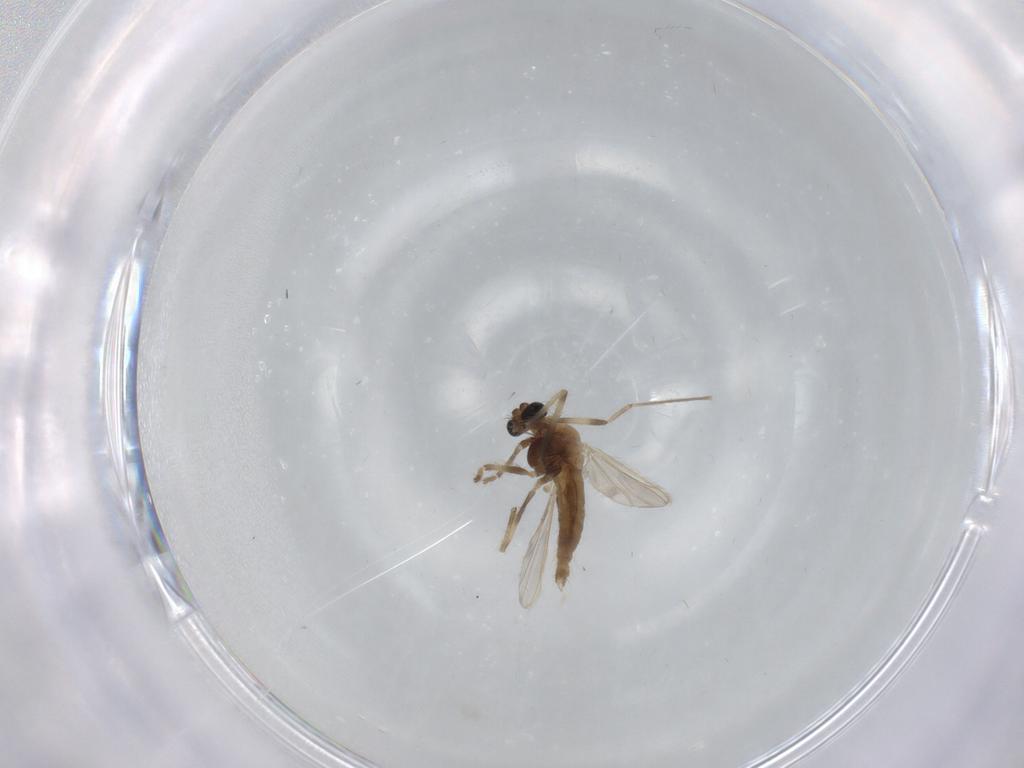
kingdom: Animalia
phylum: Arthropoda
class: Insecta
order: Diptera
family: Chironomidae
